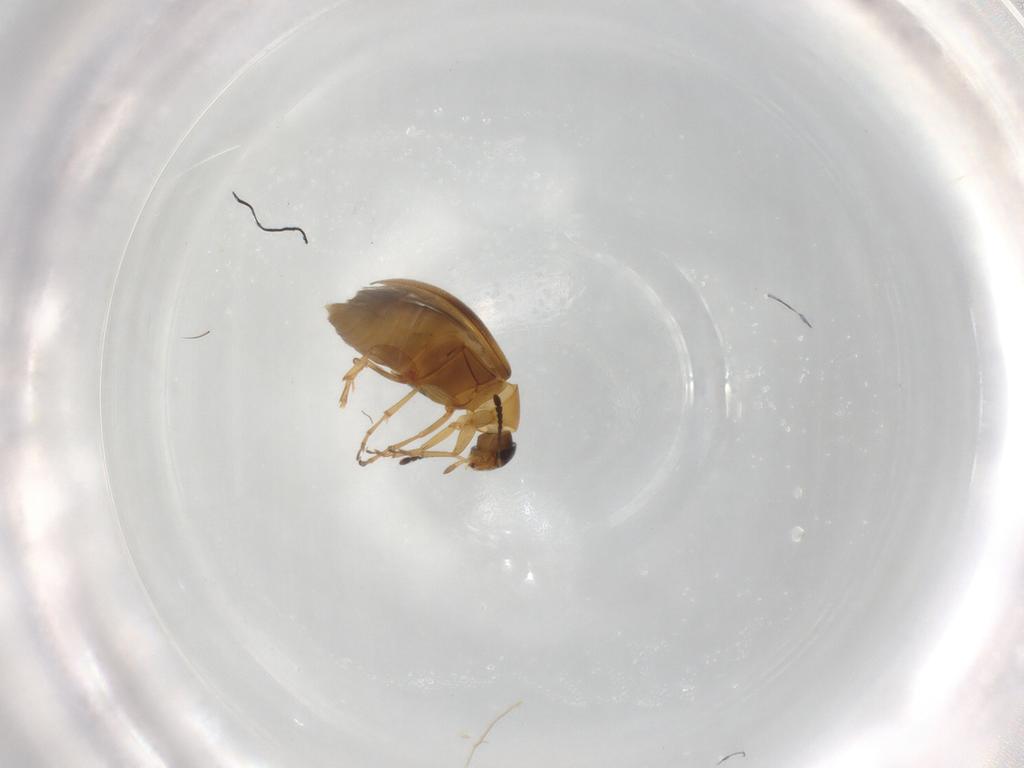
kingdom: Animalia
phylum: Arthropoda
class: Insecta
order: Coleoptera
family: Scraptiidae
